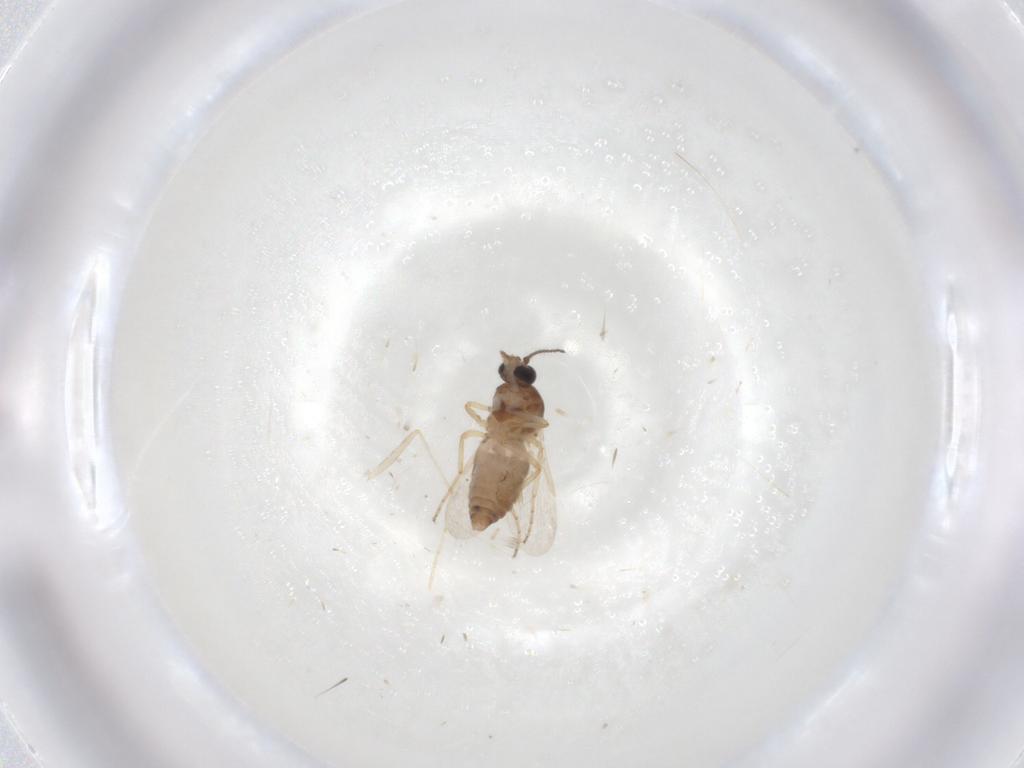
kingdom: Animalia
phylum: Arthropoda
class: Insecta
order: Diptera
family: Ceratopogonidae
